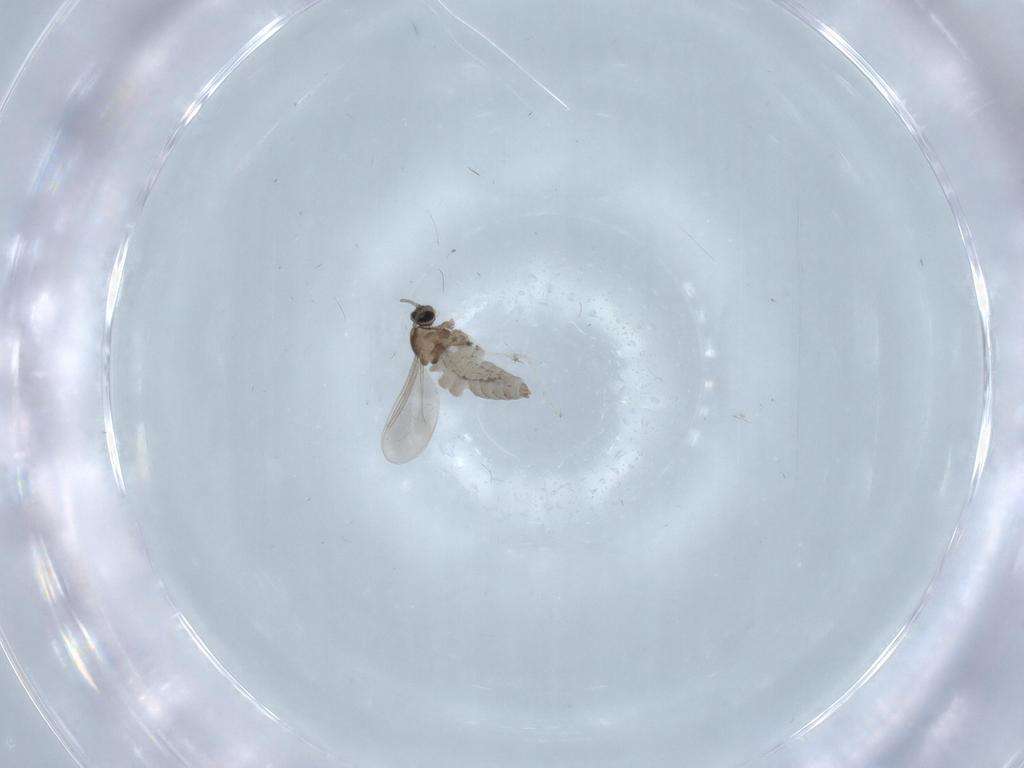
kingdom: Animalia
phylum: Arthropoda
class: Insecta
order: Diptera
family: Cecidomyiidae
